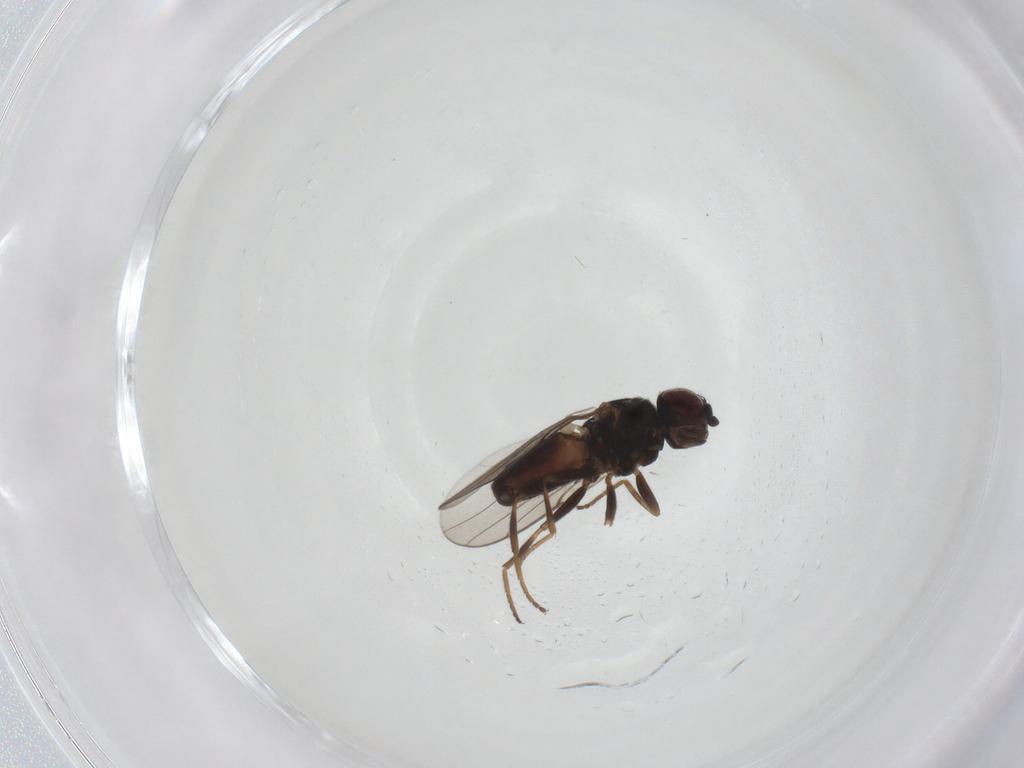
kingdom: Animalia
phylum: Arthropoda
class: Insecta
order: Diptera
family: Chloropidae
